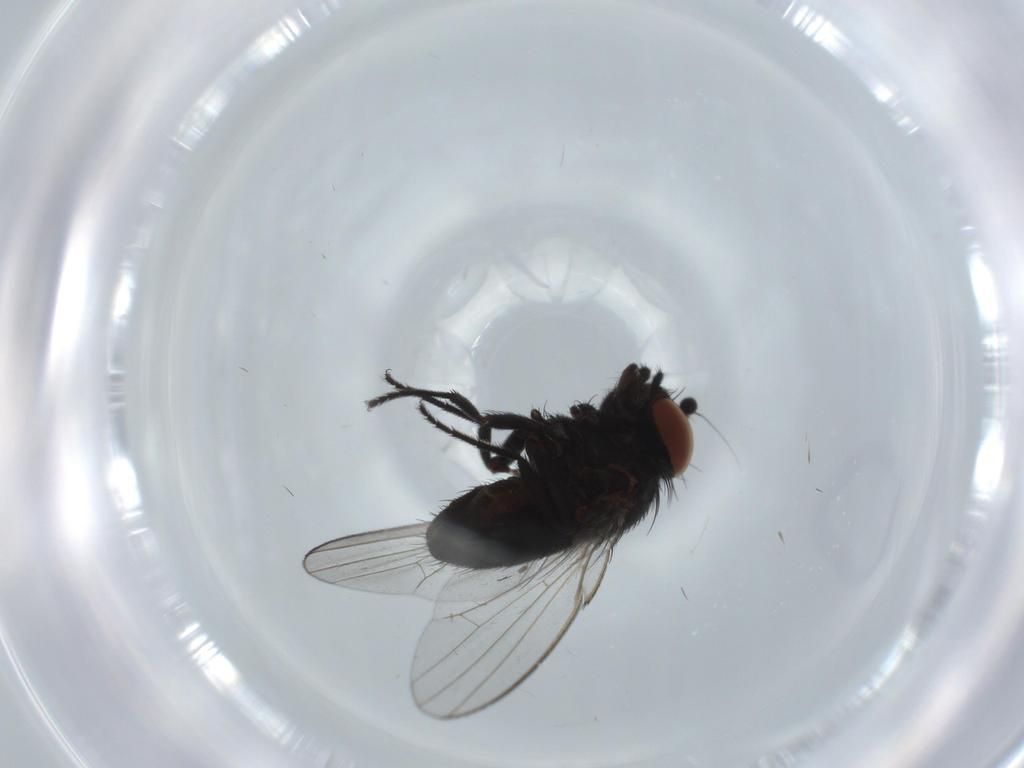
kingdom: Animalia
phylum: Arthropoda
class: Insecta
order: Diptera
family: Milichiidae
